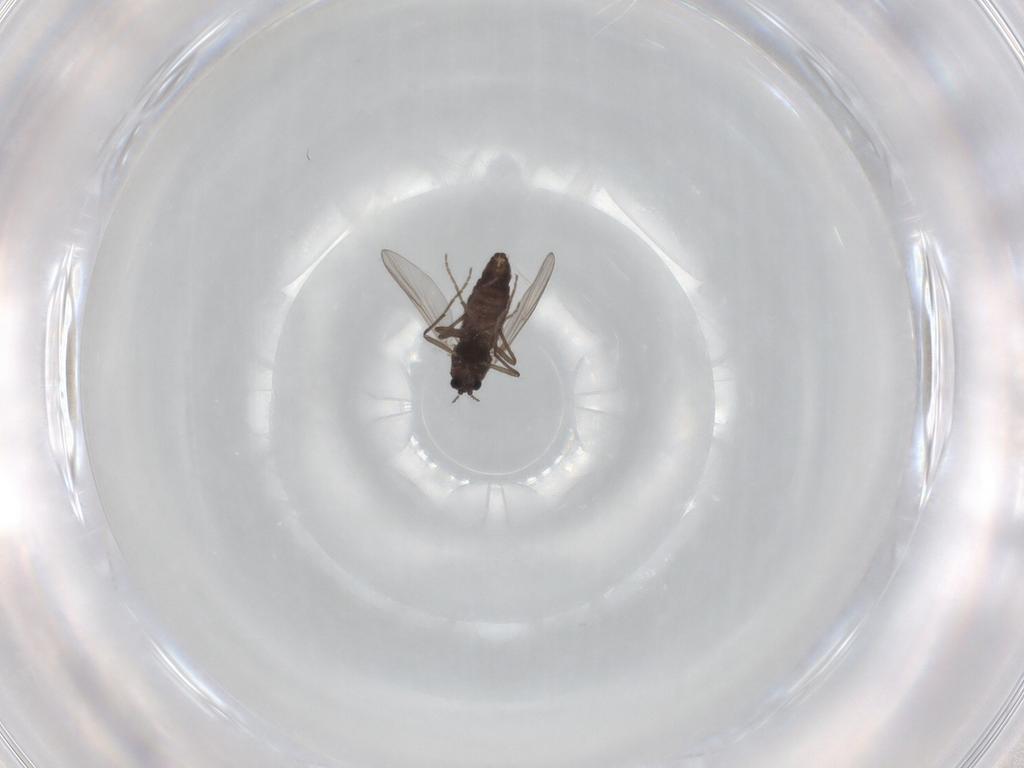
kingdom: Animalia
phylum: Arthropoda
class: Insecta
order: Diptera
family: Chironomidae
